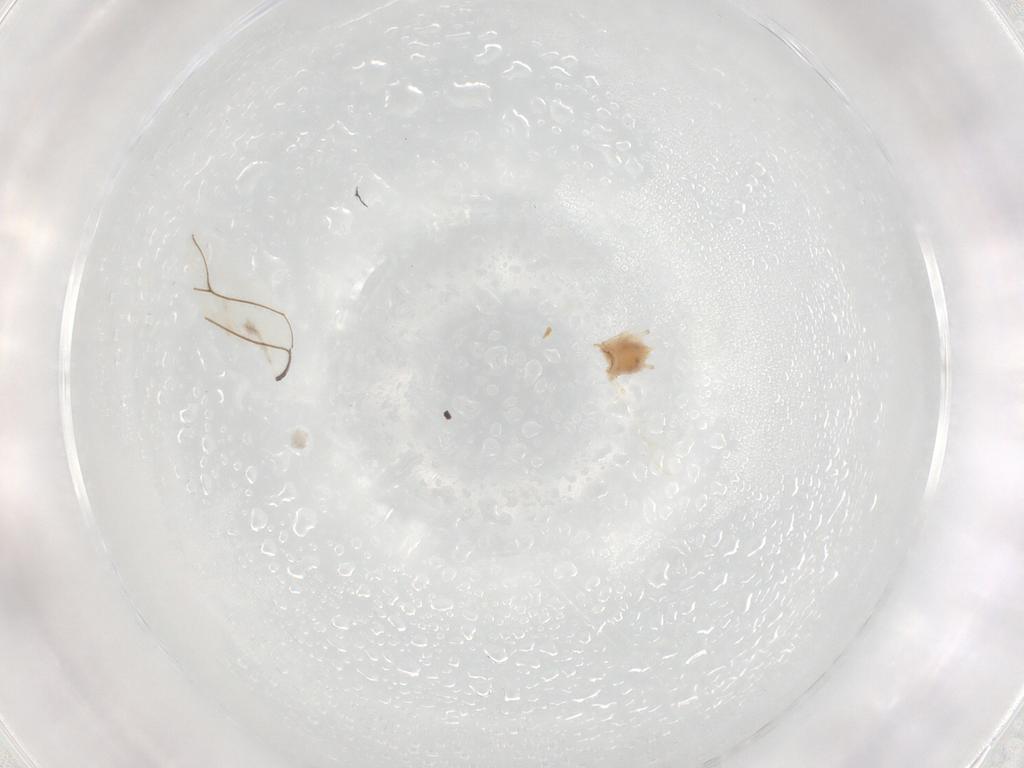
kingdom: Animalia
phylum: Arthropoda
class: Insecta
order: Hemiptera
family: Aphididae
